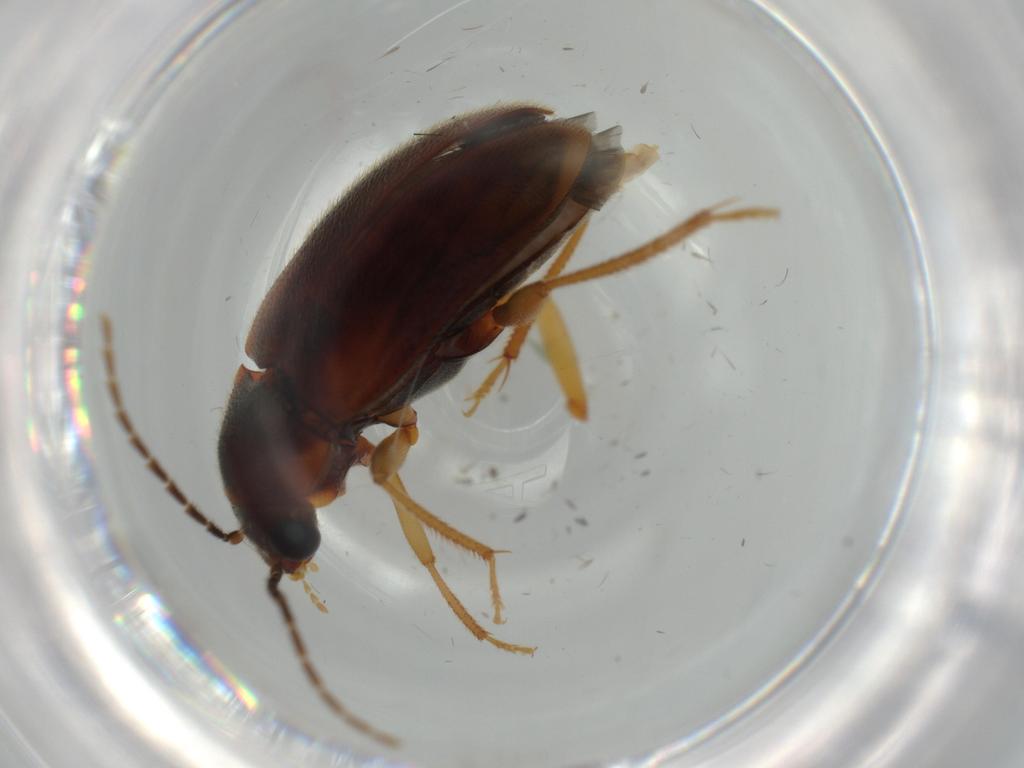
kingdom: Animalia
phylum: Arthropoda
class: Insecta
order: Coleoptera
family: Ptilodactylidae
